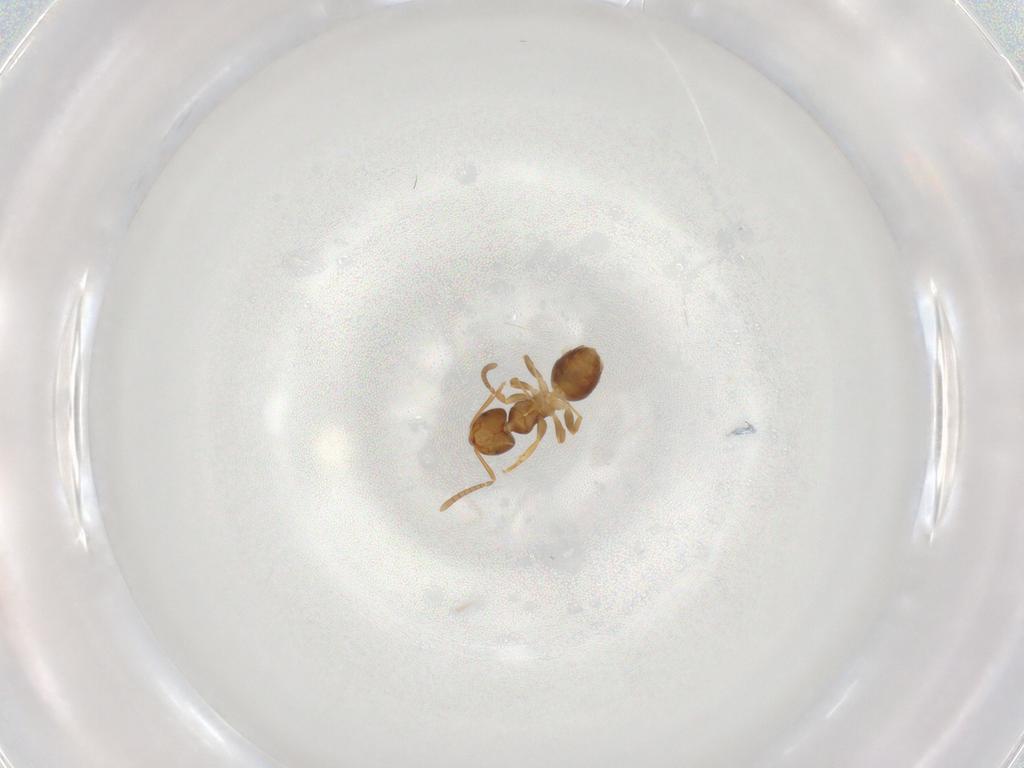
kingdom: Animalia
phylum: Arthropoda
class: Insecta
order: Hymenoptera
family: Formicidae
